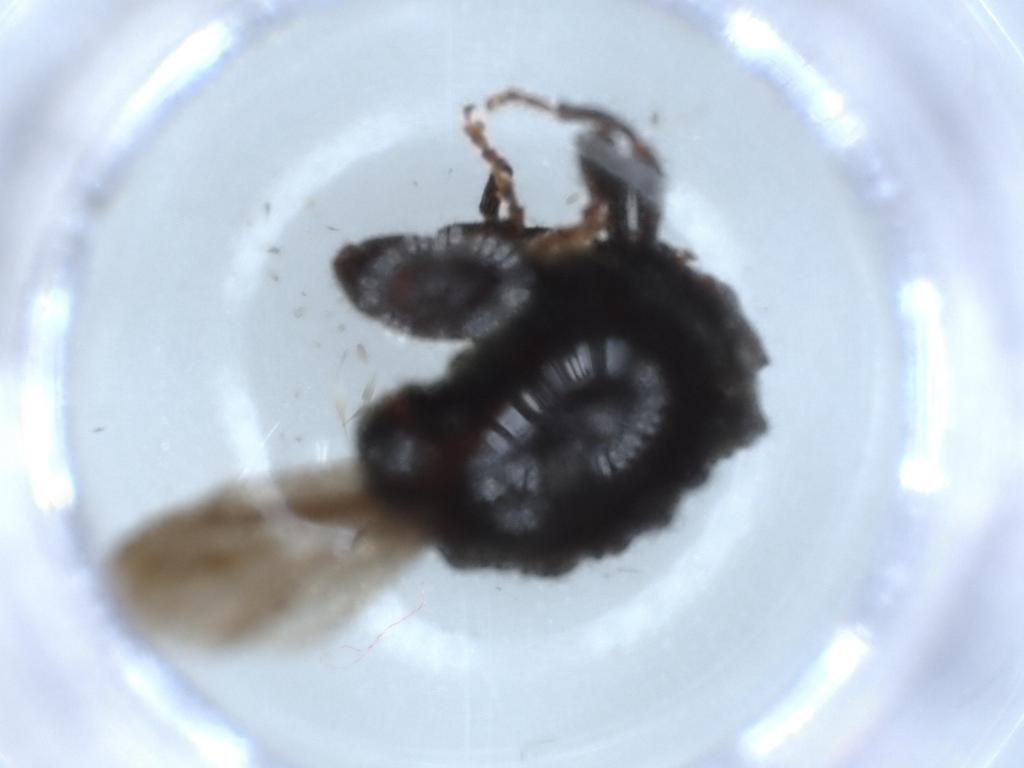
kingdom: Animalia
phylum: Arthropoda
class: Insecta
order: Coleoptera
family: Curculionidae
